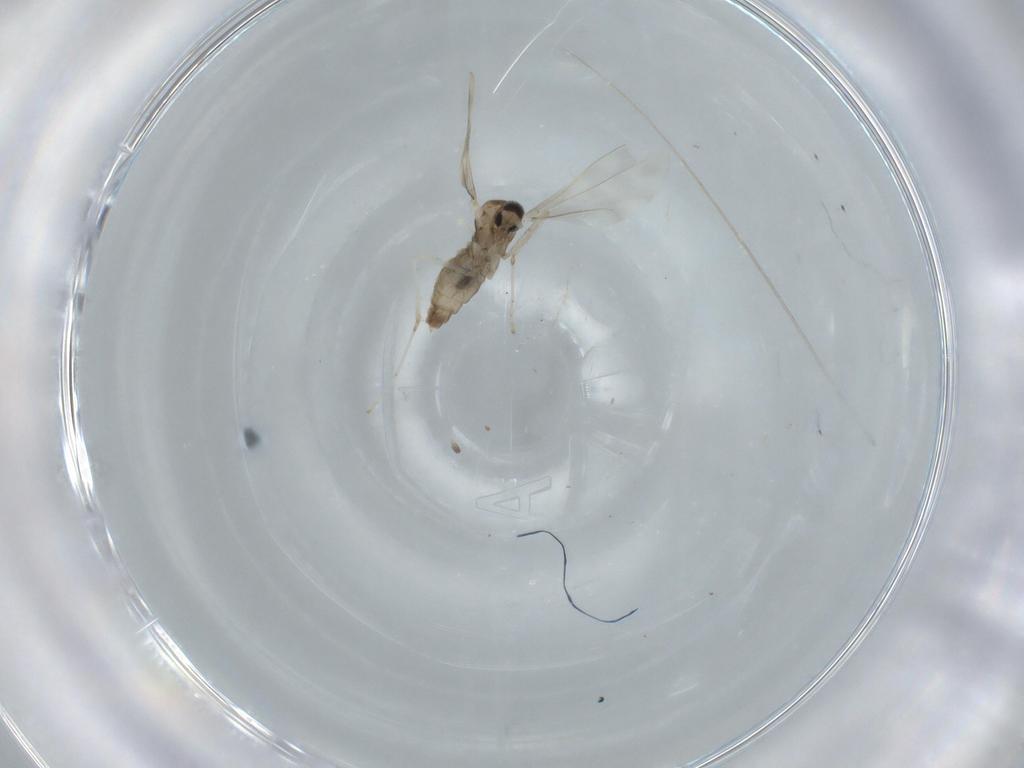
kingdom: Animalia
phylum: Arthropoda
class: Insecta
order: Diptera
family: Cecidomyiidae
